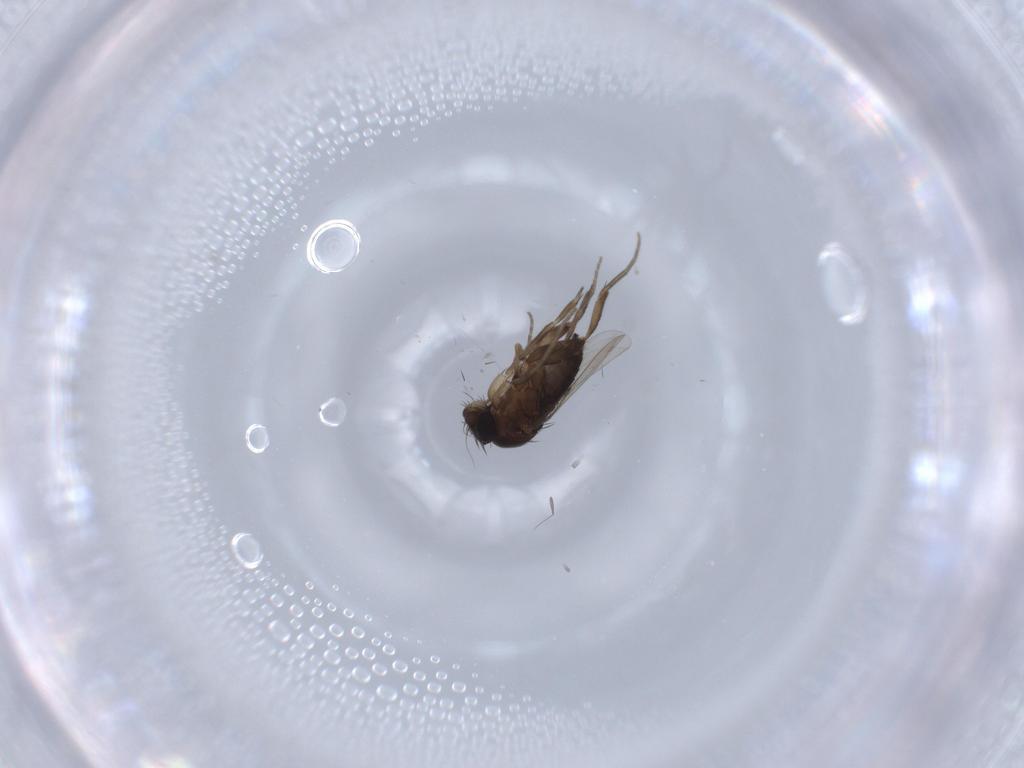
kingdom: Animalia
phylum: Arthropoda
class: Insecta
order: Diptera
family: Phoridae
